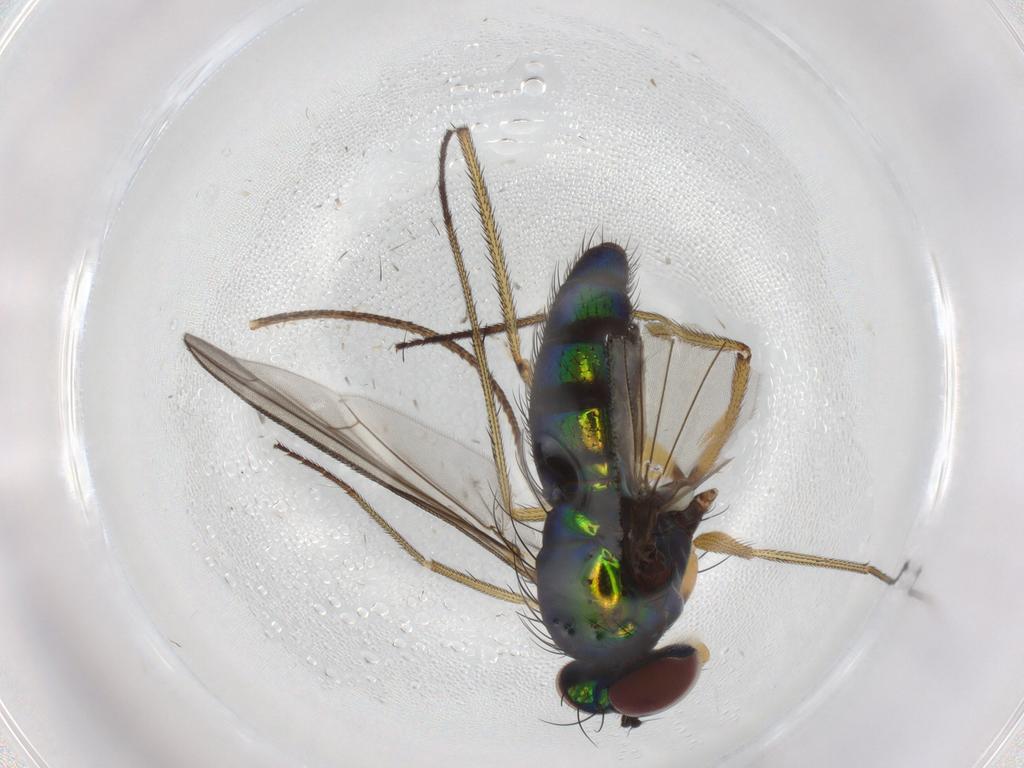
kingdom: Animalia
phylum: Arthropoda
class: Insecta
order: Diptera
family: Dolichopodidae
